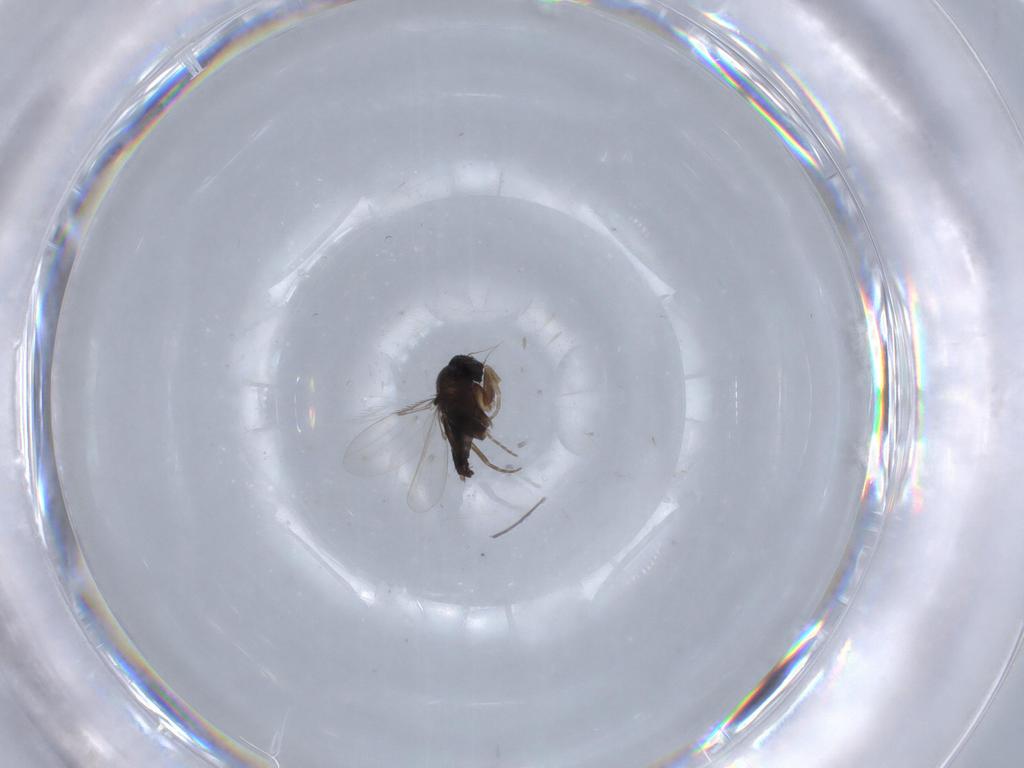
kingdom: Animalia
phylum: Arthropoda
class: Insecta
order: Diptera
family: Phoridae
